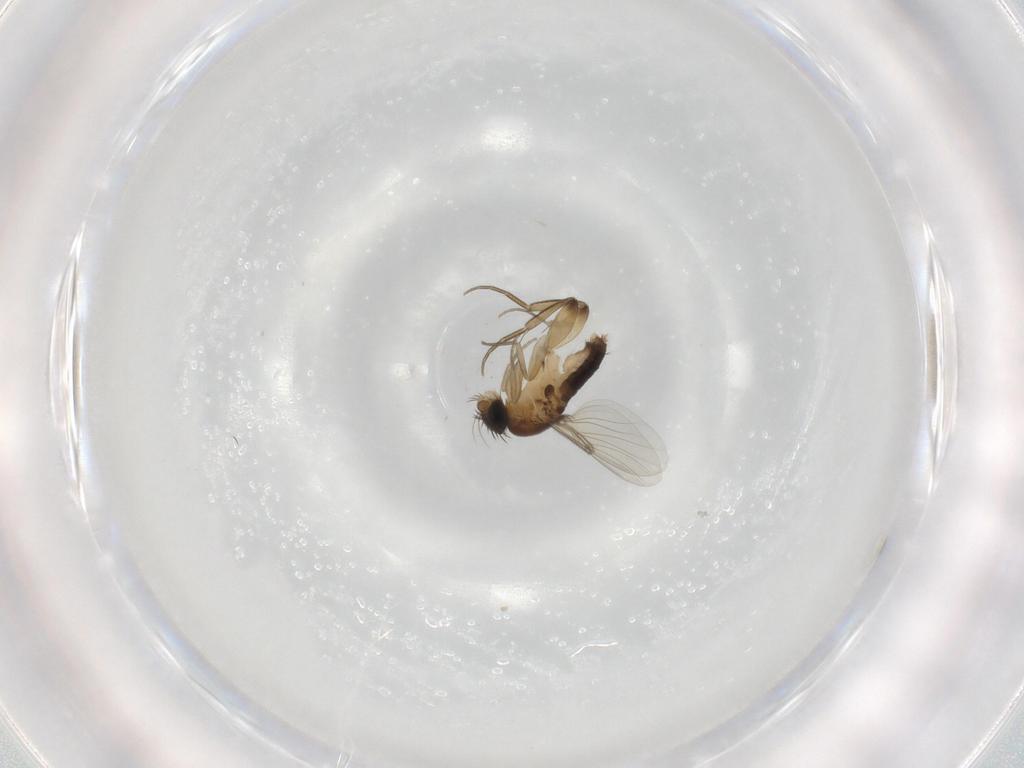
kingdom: Animalia
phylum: Arthropoda
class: Insecta
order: Diptera
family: Phoridae
